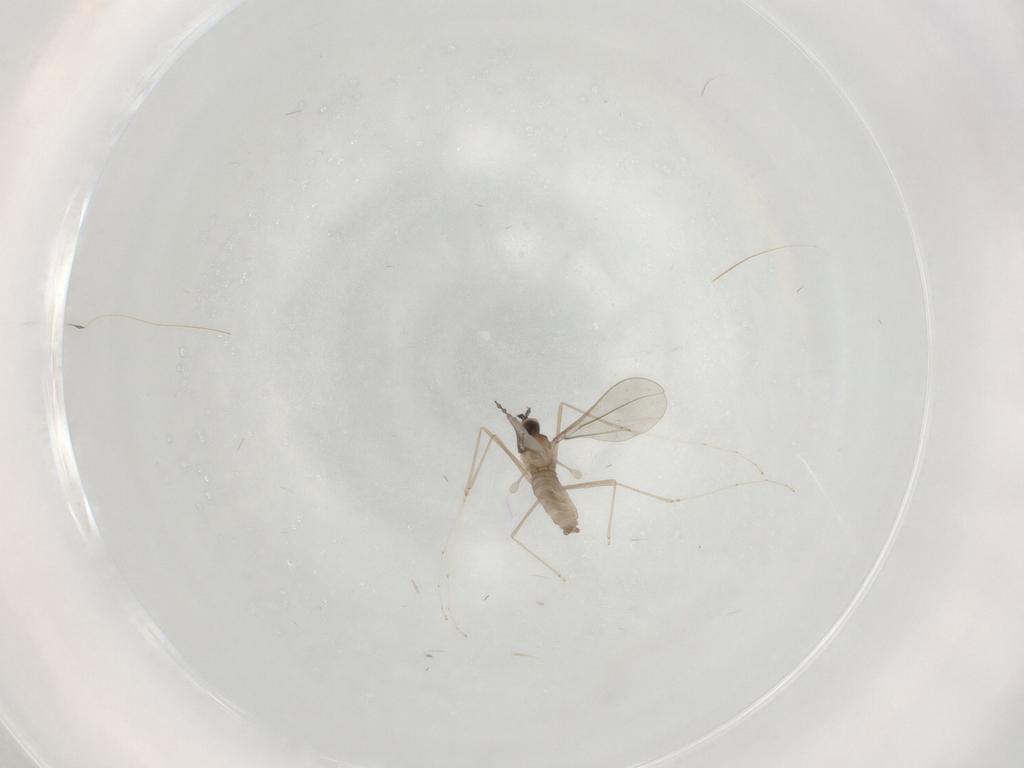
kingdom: Animalia
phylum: Arthropoda
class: Insecta
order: Diptera
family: Cecidomyiidae
